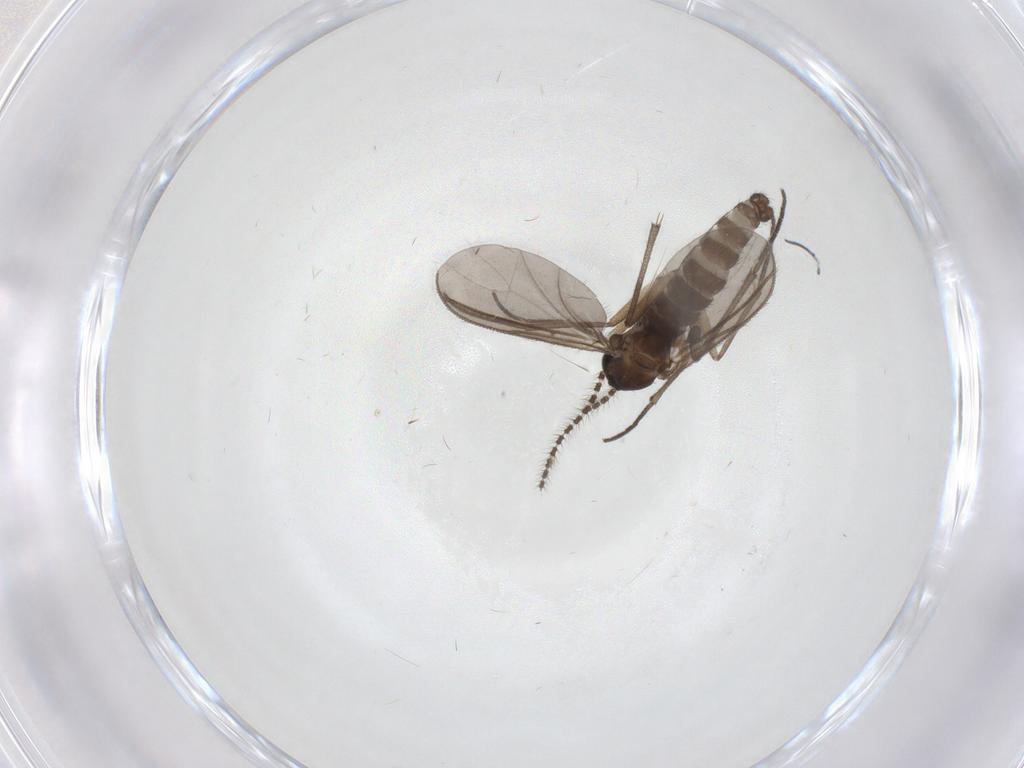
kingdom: Animalia
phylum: Arthropoda
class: Insecta
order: Diptera
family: Sciaridae
